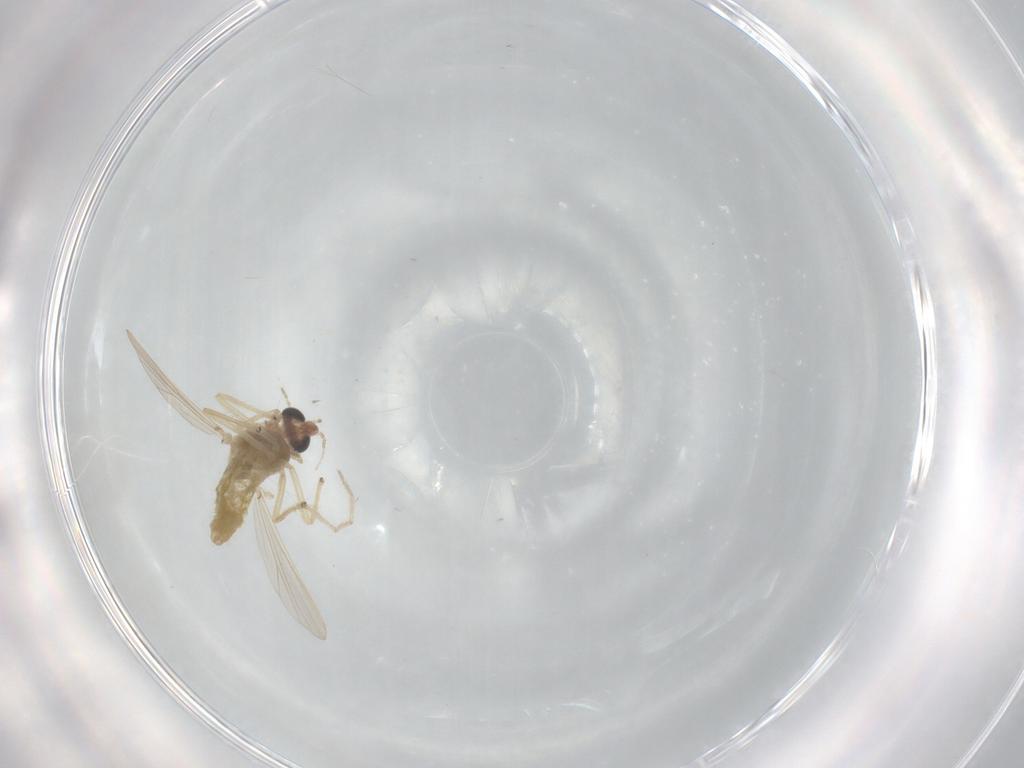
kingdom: Animalia
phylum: Arthropoda
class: Insecta
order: Diptera
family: Chironomidae
